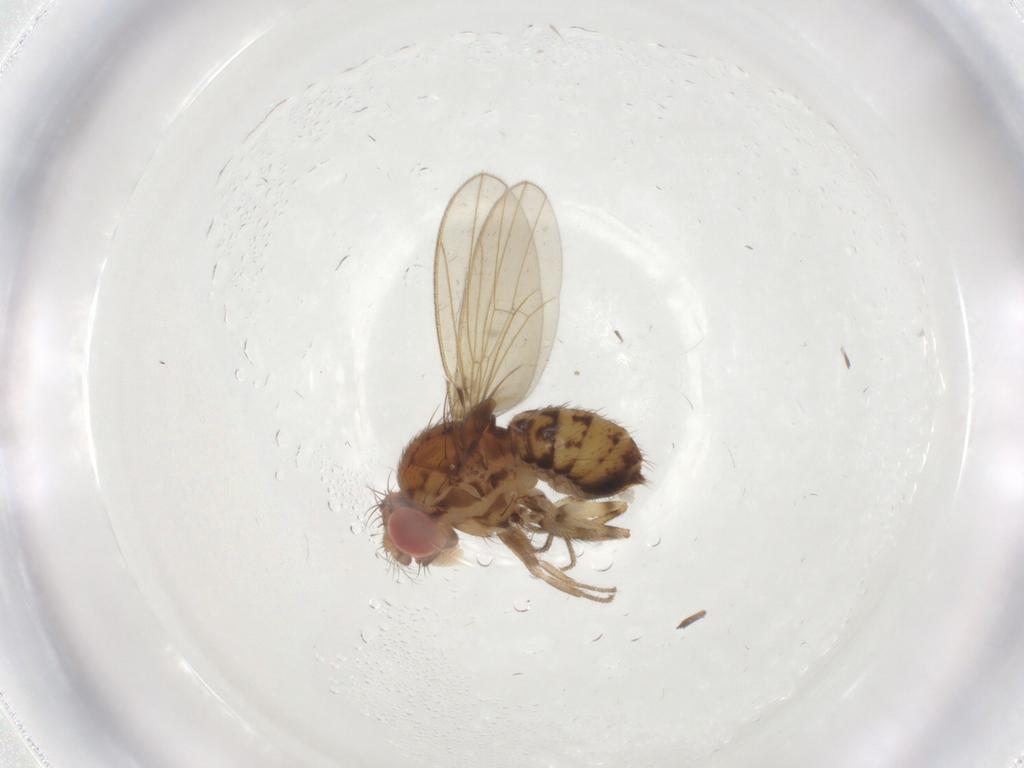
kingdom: Animalia
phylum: Arthropoda
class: Insecta
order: Diptera
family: Drosophilidae
